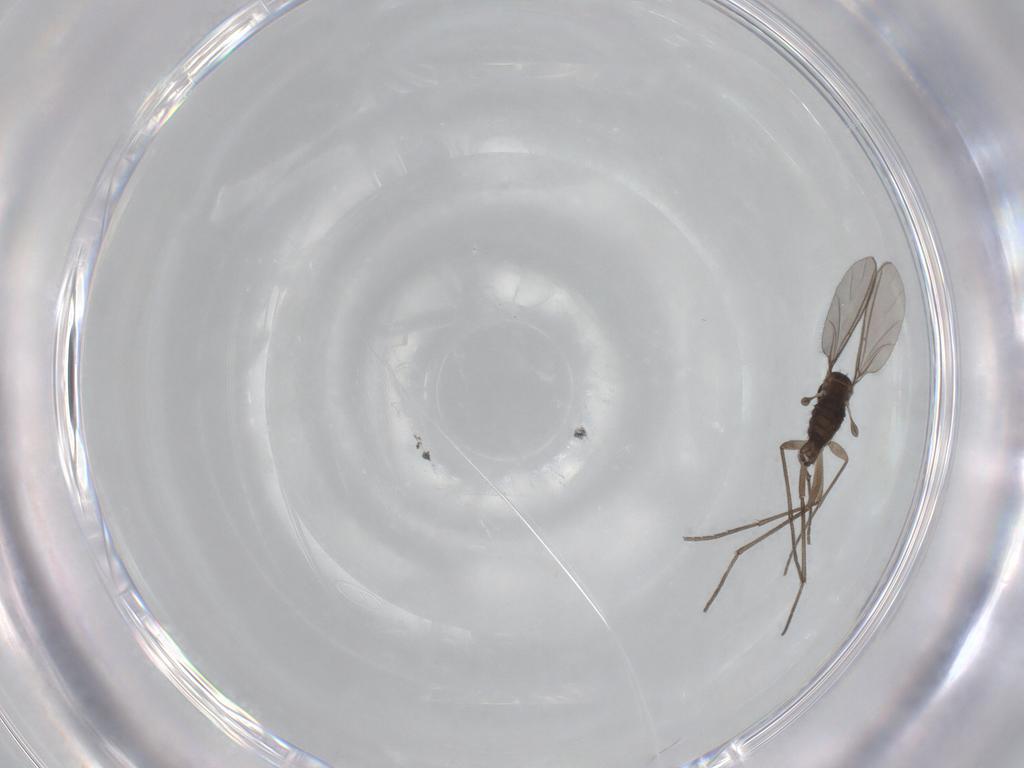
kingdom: Animalia
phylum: Arthropoda
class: Insecta
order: Diptera
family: Sciaridae
